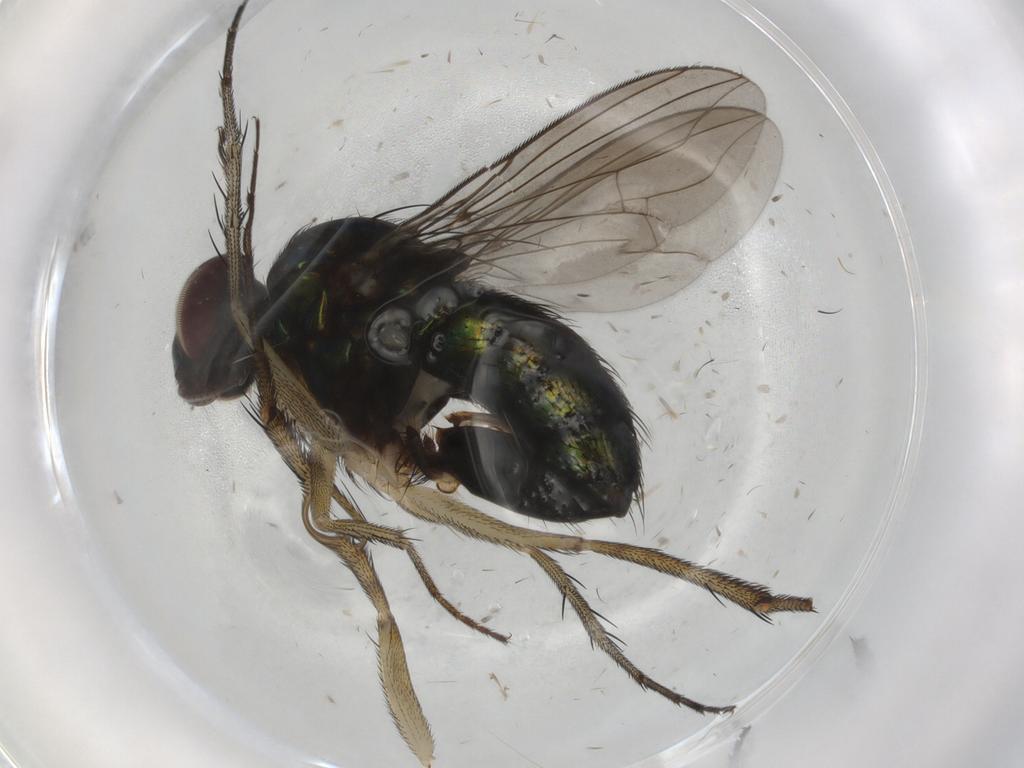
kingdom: Animalia
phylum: Arthropoda
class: Insecta
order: Diptera
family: Dolichopodidae
